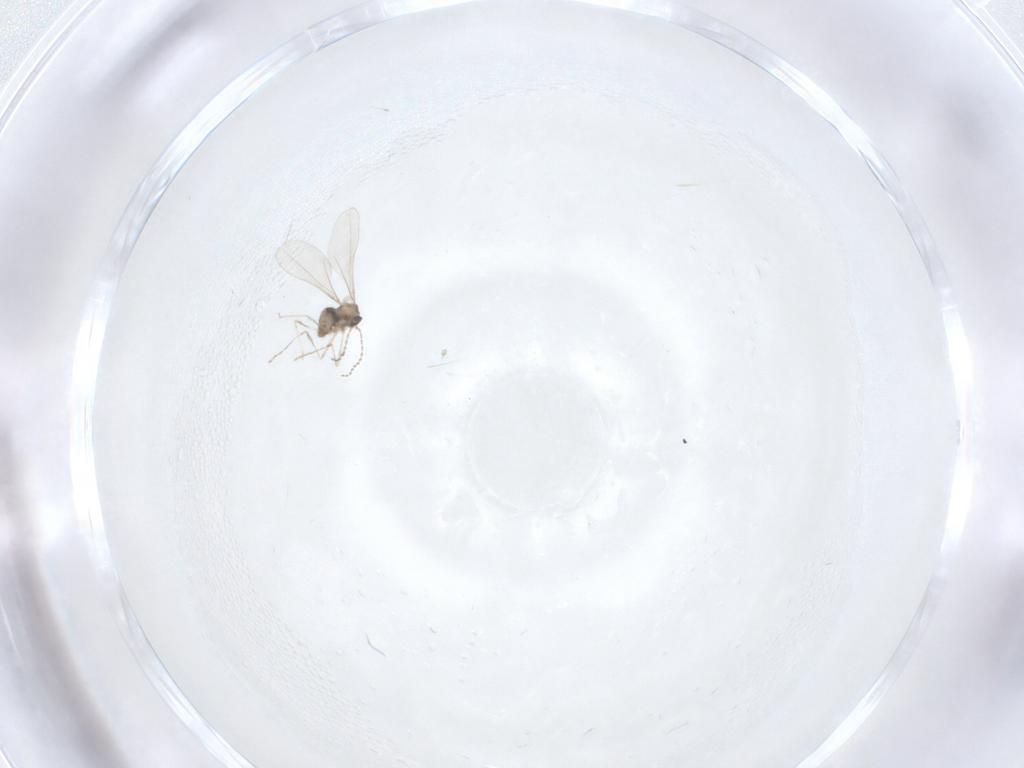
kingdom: Animalia
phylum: Arthropoda
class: Insecta
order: Diptera
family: Cecidomyiidae
